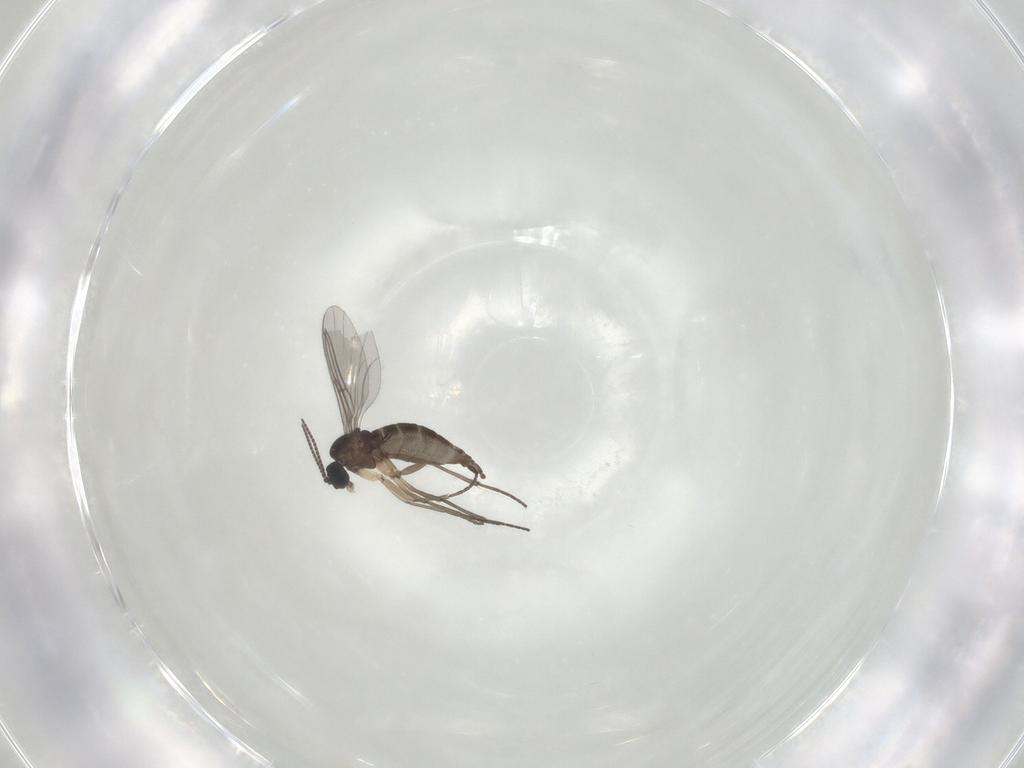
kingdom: Animalia
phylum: Arthropoda
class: Insecta
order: Diptera
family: Sciaridae
